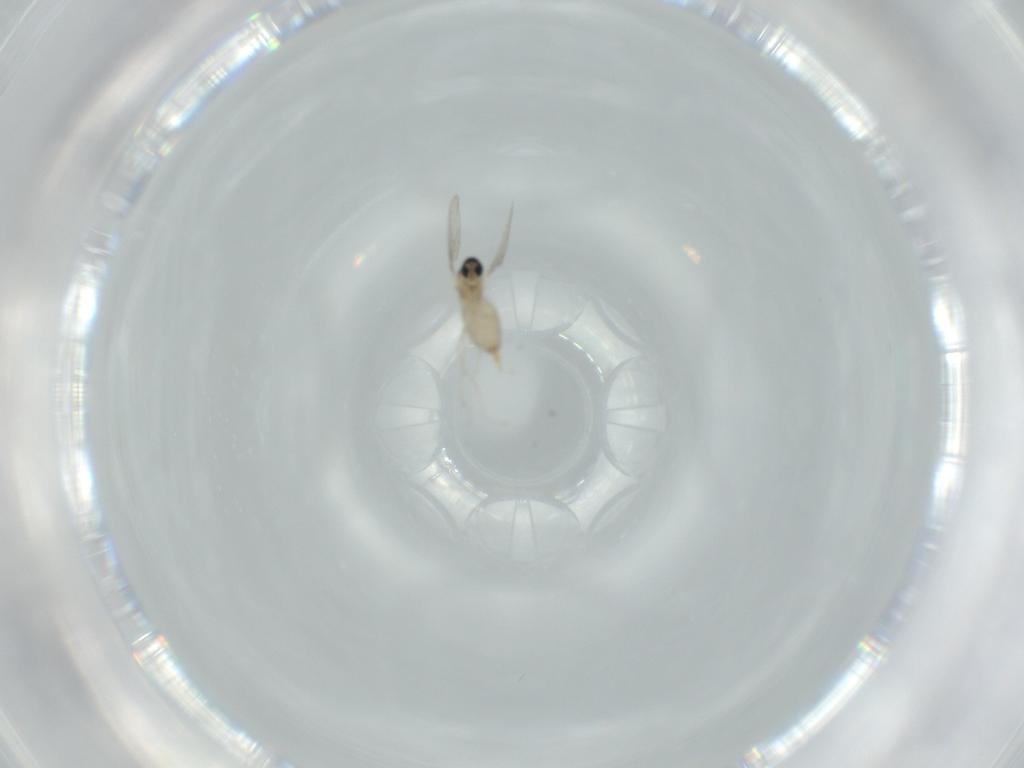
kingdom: Animalia
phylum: Arthropoda
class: Insecta
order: Diptera
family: Cecidomyiidae
